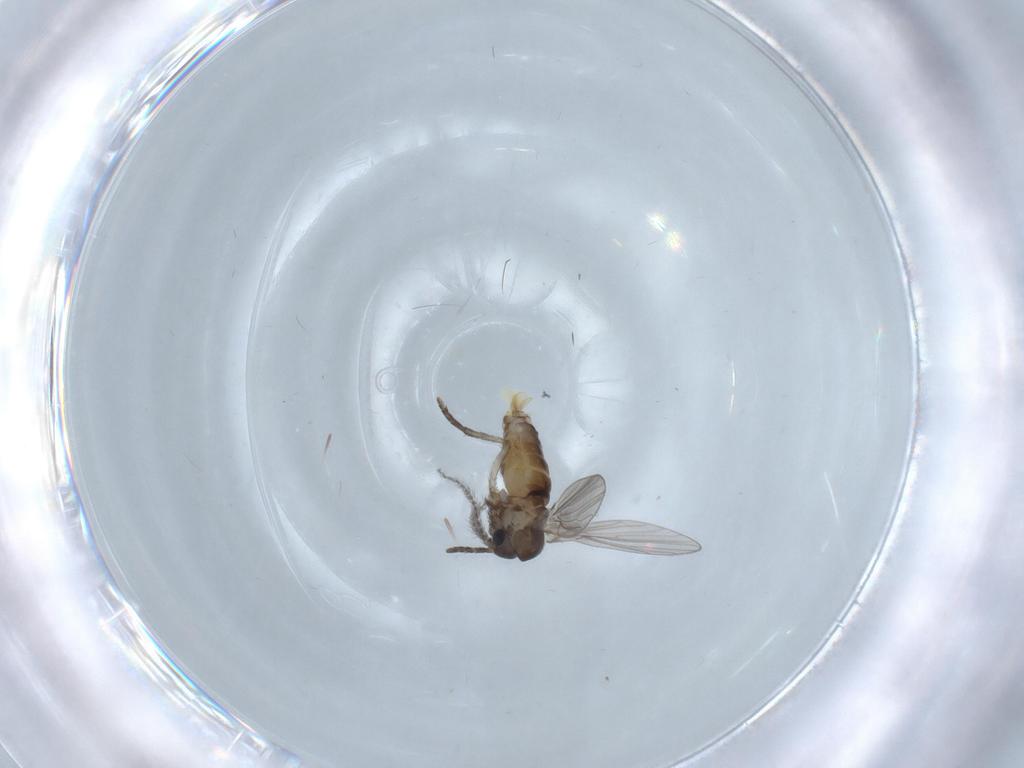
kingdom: Animalia
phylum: Arthropoda
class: Insecta
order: Diptera
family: Psychodidae
